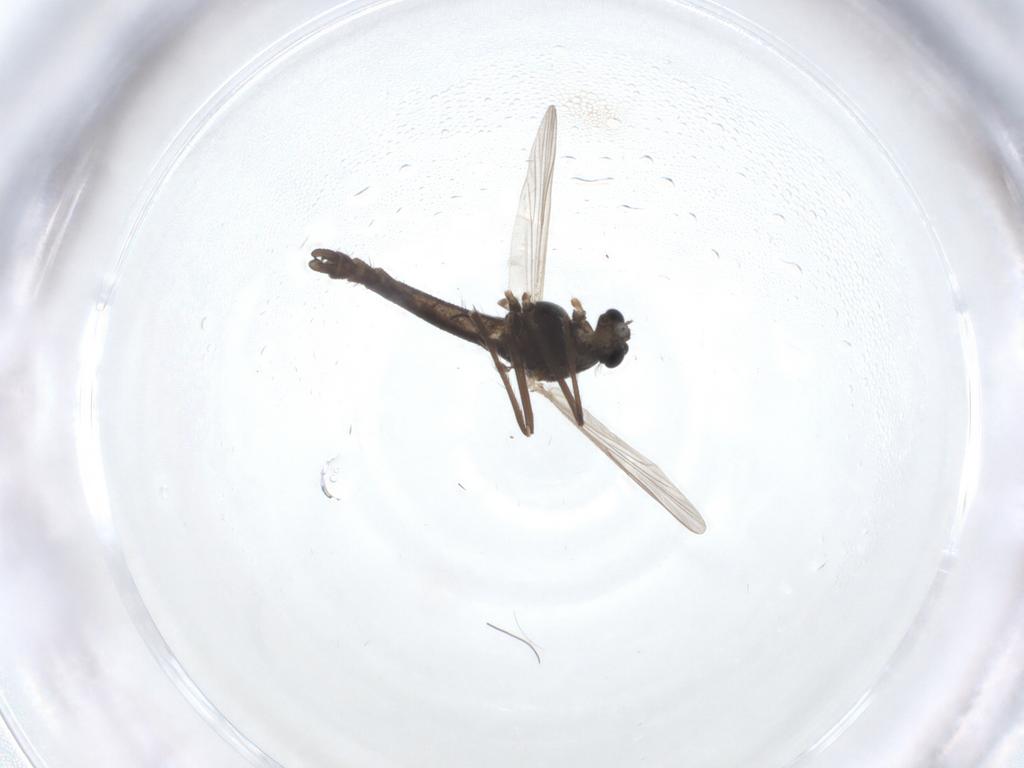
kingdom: Animalia
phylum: Arthropoda
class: Insecta
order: Diptera
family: Chironomidae
